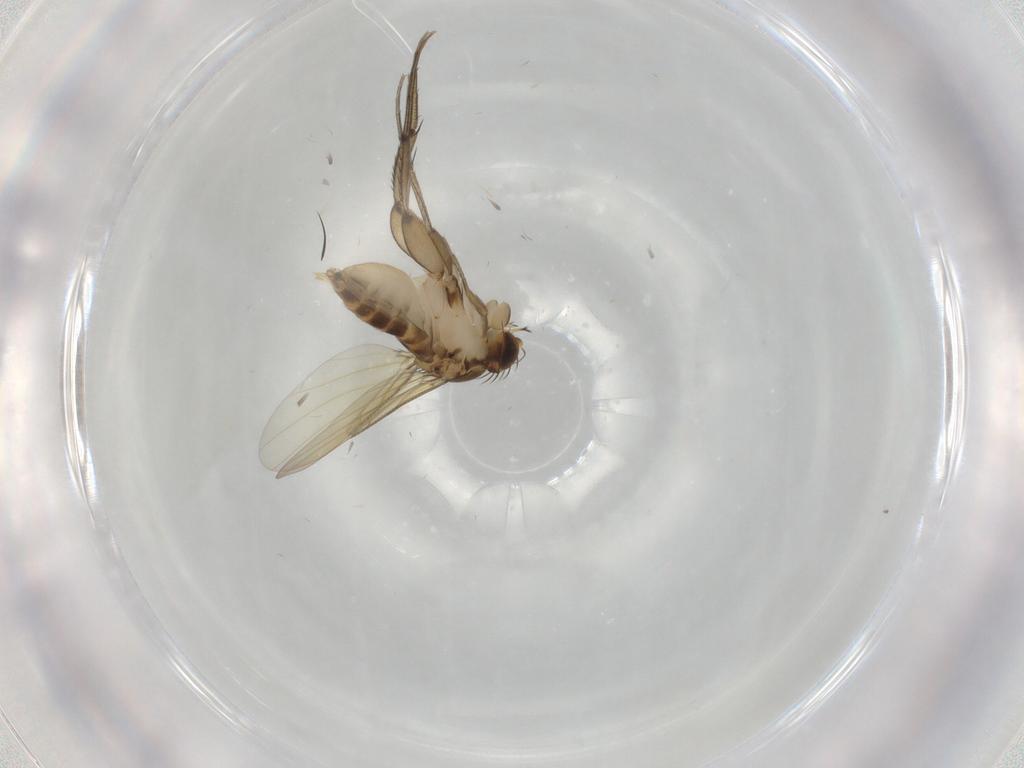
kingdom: Animalia
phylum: Arthropoda
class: Insecta
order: Diptera
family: Phoridae
